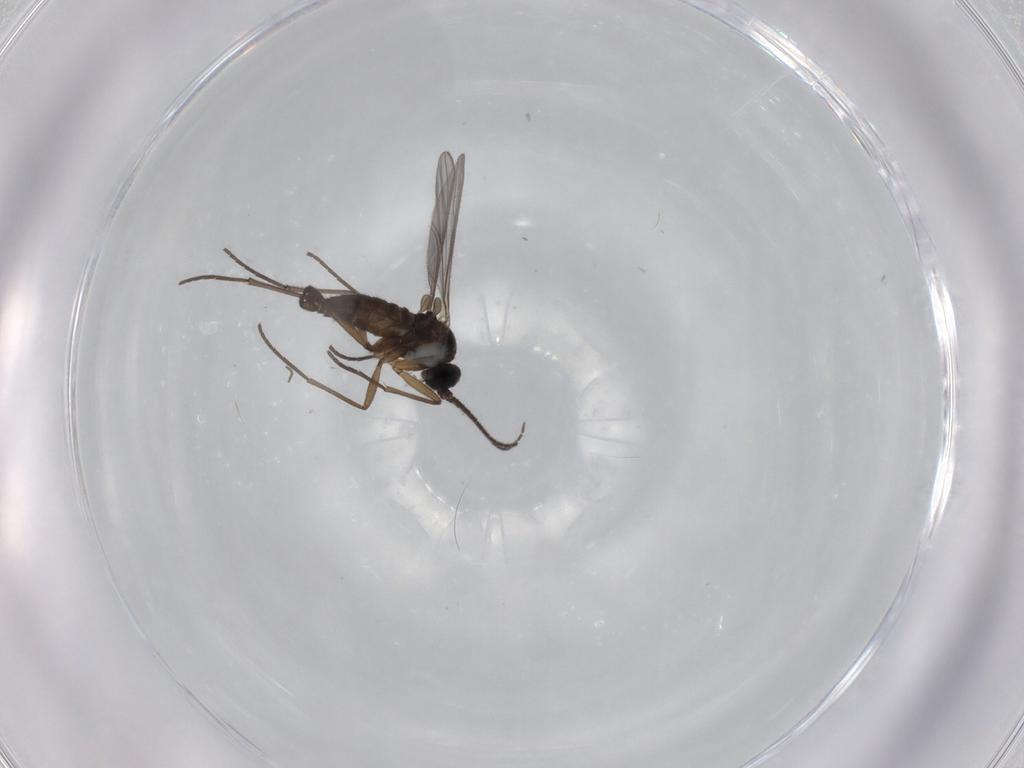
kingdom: Animalia
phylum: Arthropoda
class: Insecta
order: Diptera
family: Sciaridae
